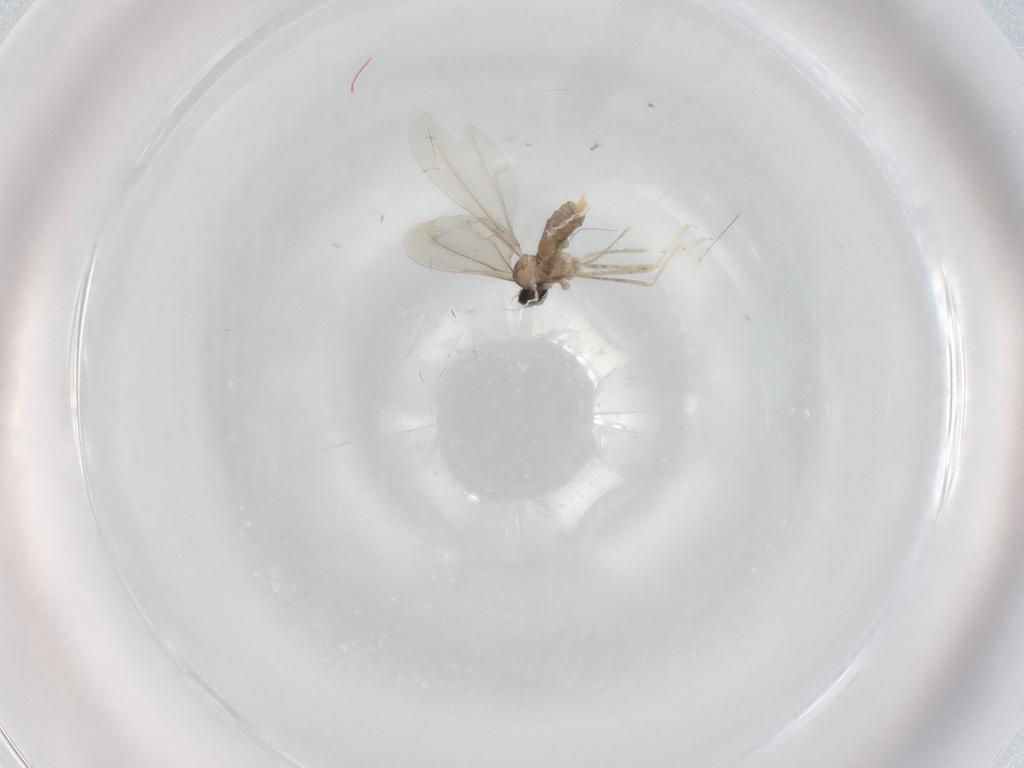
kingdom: Animalia
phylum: Arthropoda
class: Insecta
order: Diptera
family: Cecidomyiidae
